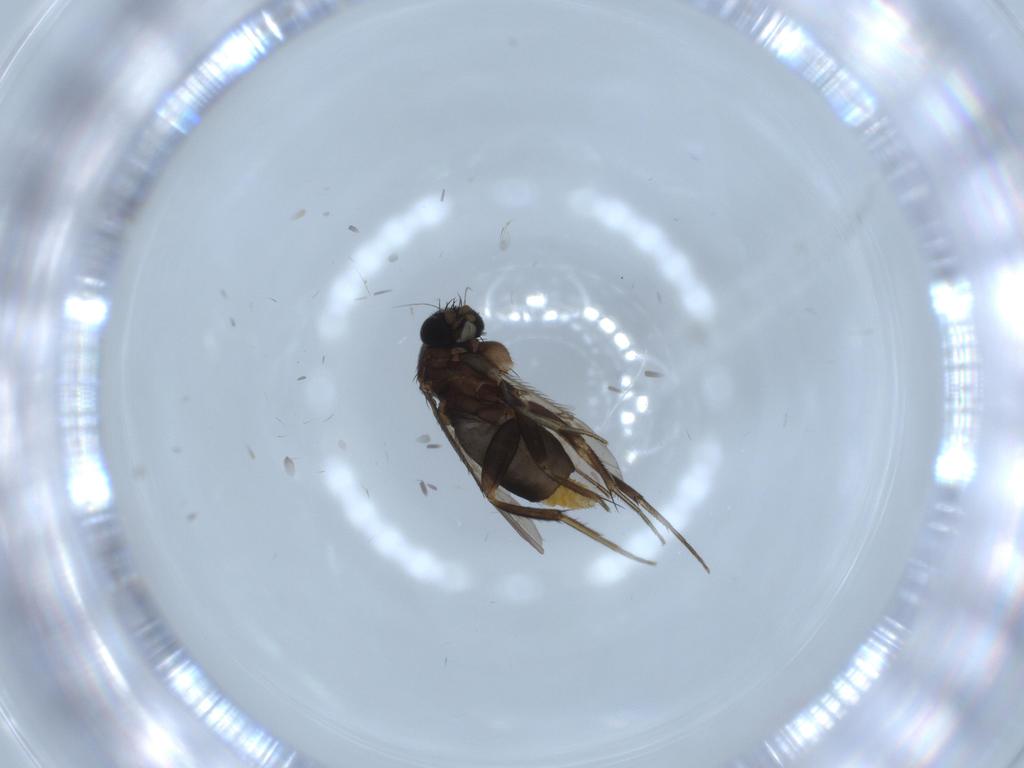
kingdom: Animalia
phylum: Arthropoda
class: Insecta
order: Diptera
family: Phoridae
